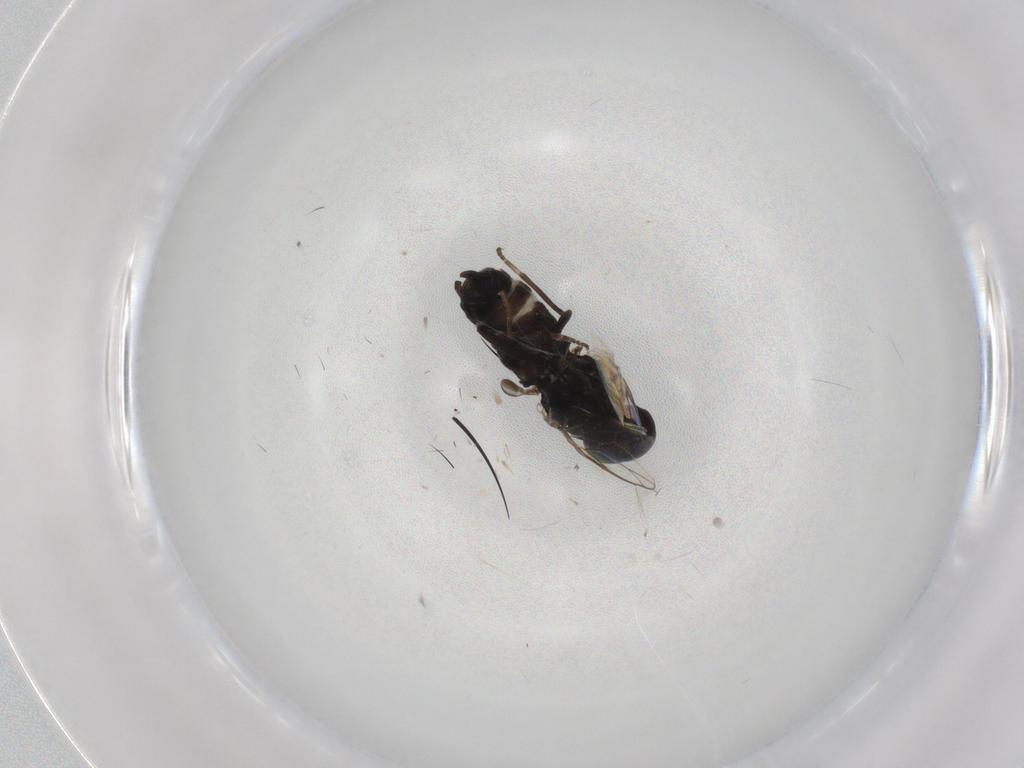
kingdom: Animalia
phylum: Arthropoda
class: Insecta
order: Diptera
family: Scenopinidae
